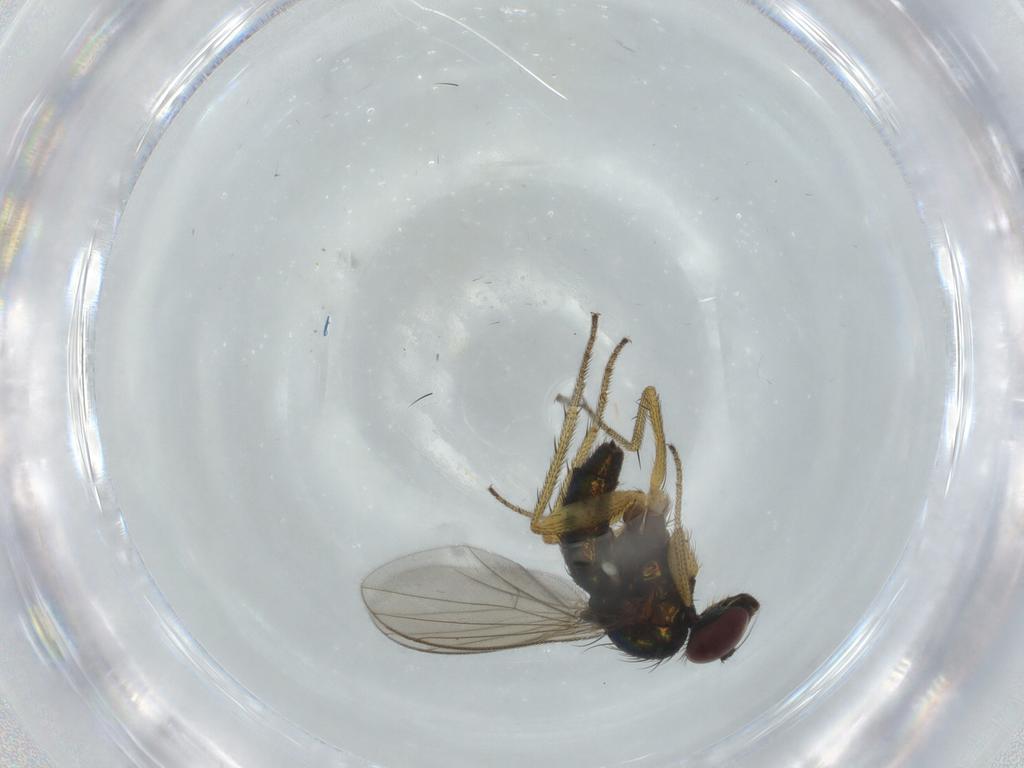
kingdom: Animalia
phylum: Arthropoda
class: Insecta
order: Diptera
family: Dolichopodidae
